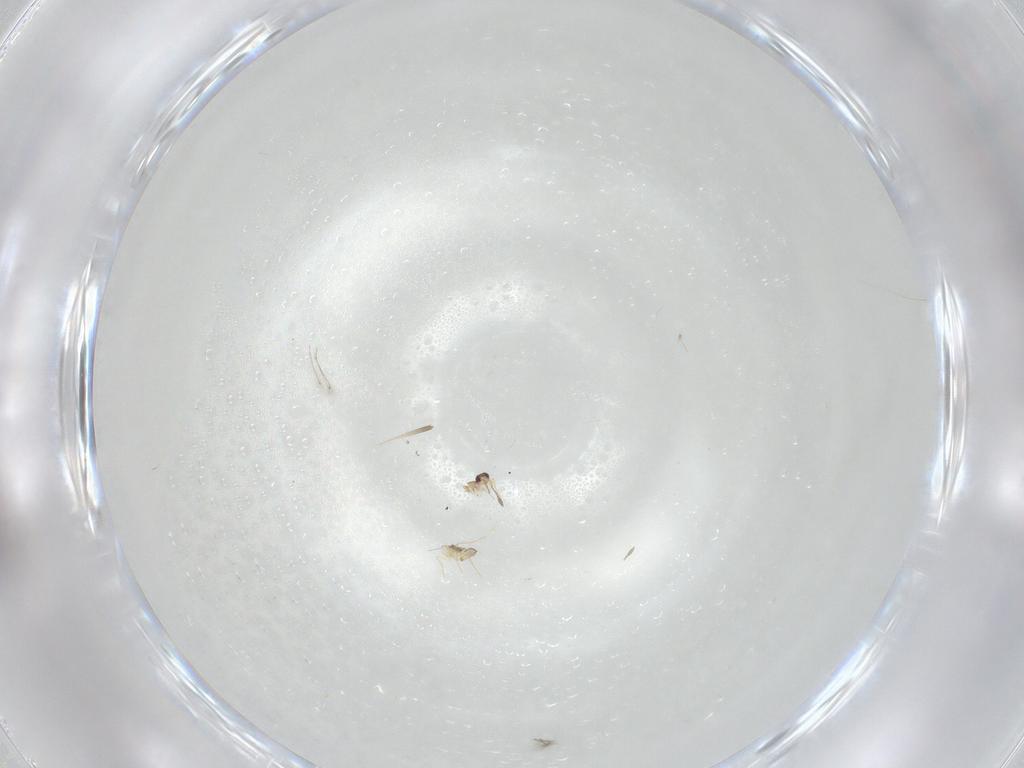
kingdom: Animalia
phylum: Arthropoda
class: Insecta
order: Hymenoptera
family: Mymaridae
